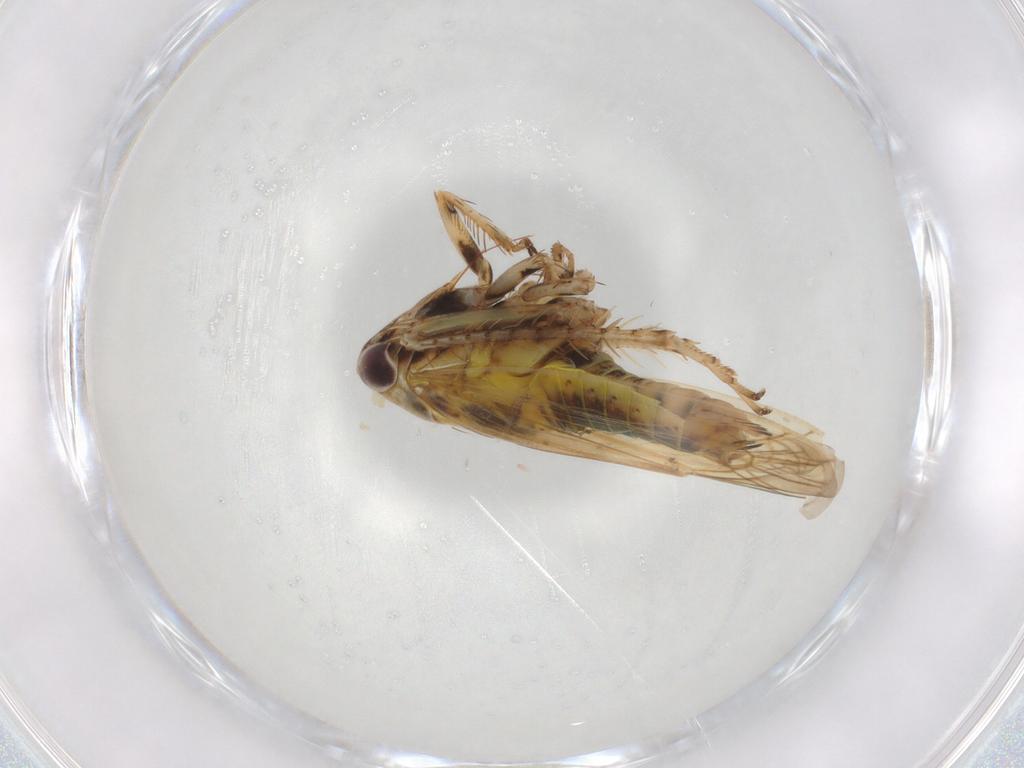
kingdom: Animalia
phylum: Arthropoda
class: Insecta
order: Hemiptera
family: Cicadellidae
